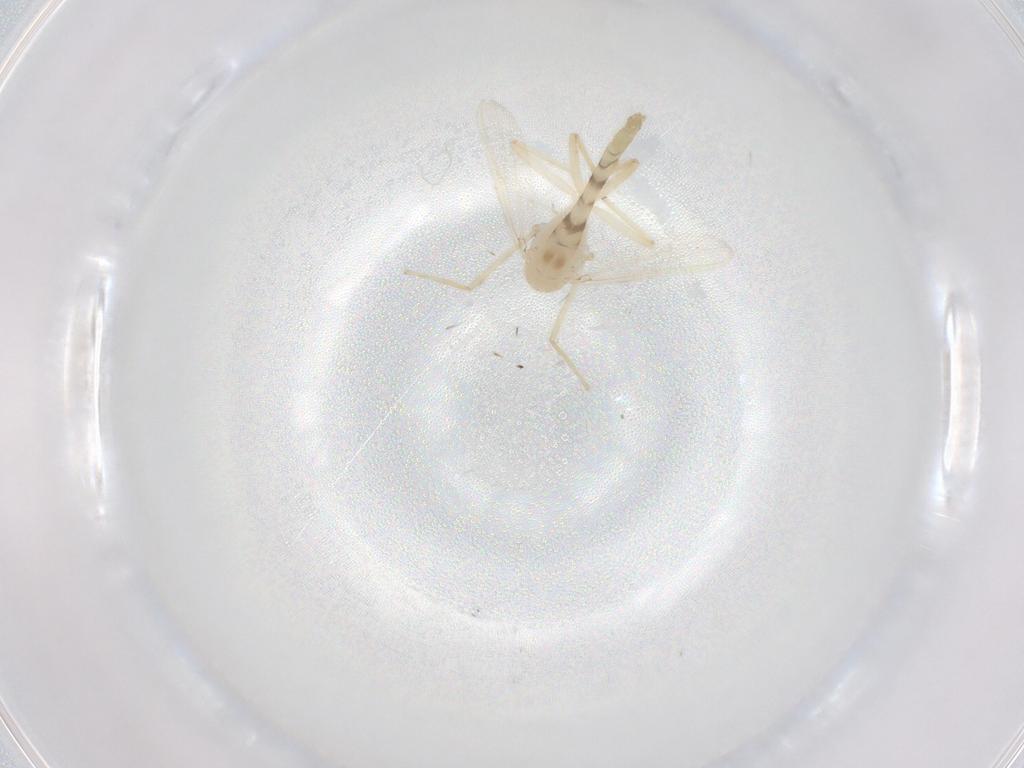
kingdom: Animalia
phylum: Arthropoda
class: Insecta
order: Diptera
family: Chironomidae
